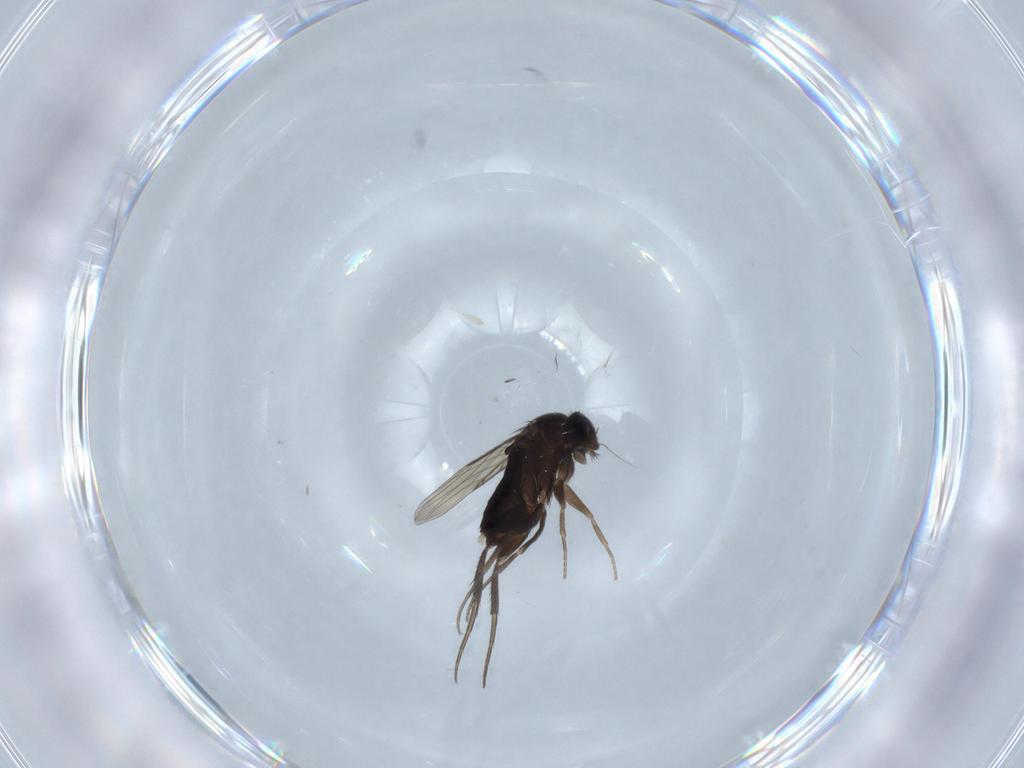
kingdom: Animalia
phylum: Arthropoda
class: Insecta
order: Diptera
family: Phoridae
